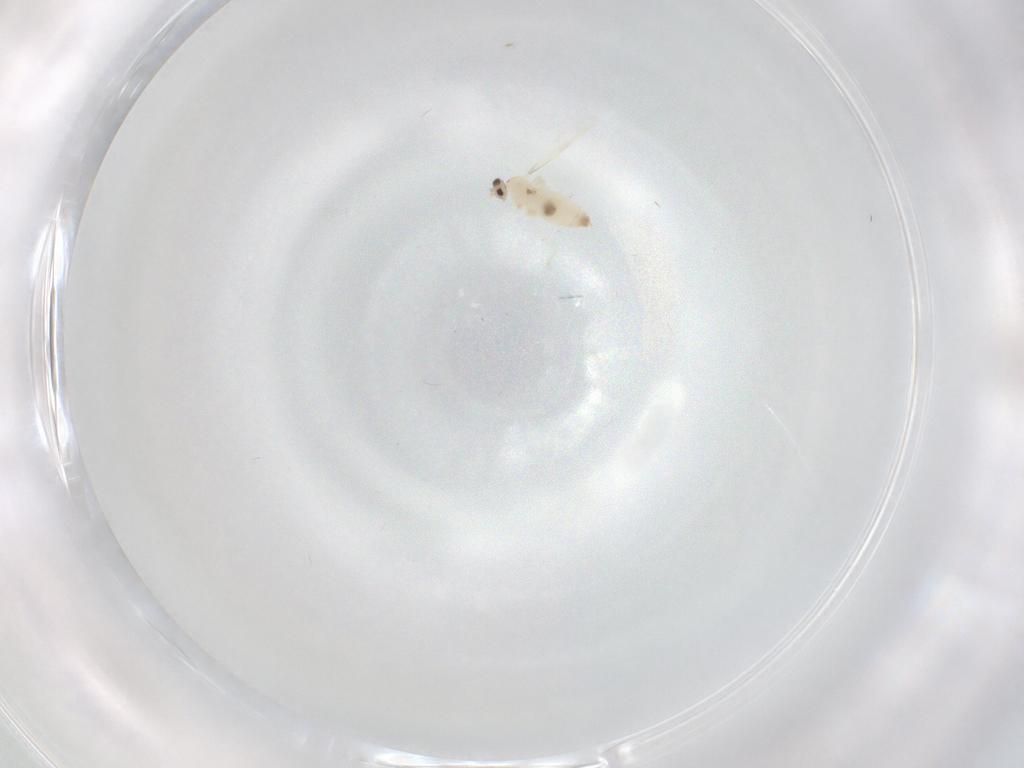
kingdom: Animalia
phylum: Arthropoda
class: Insecta
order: Diptera
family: Cecidomyiidae
